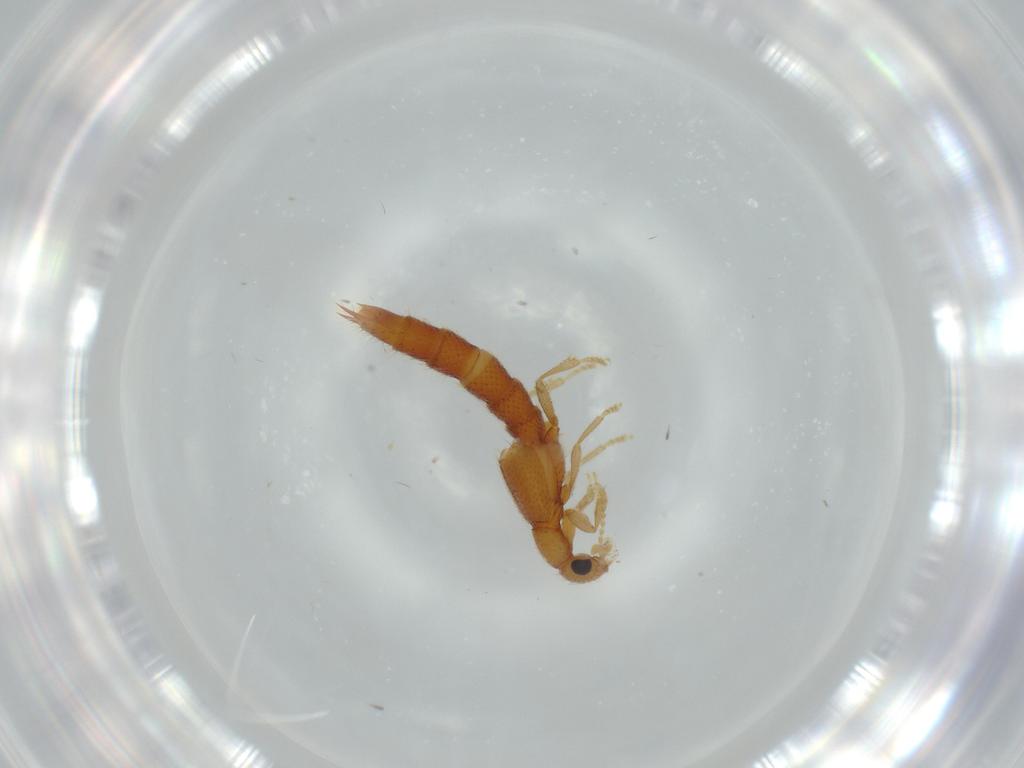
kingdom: Animalia
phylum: Arthropoda
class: Insecta
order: Coleoptera
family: Staphylinidae
